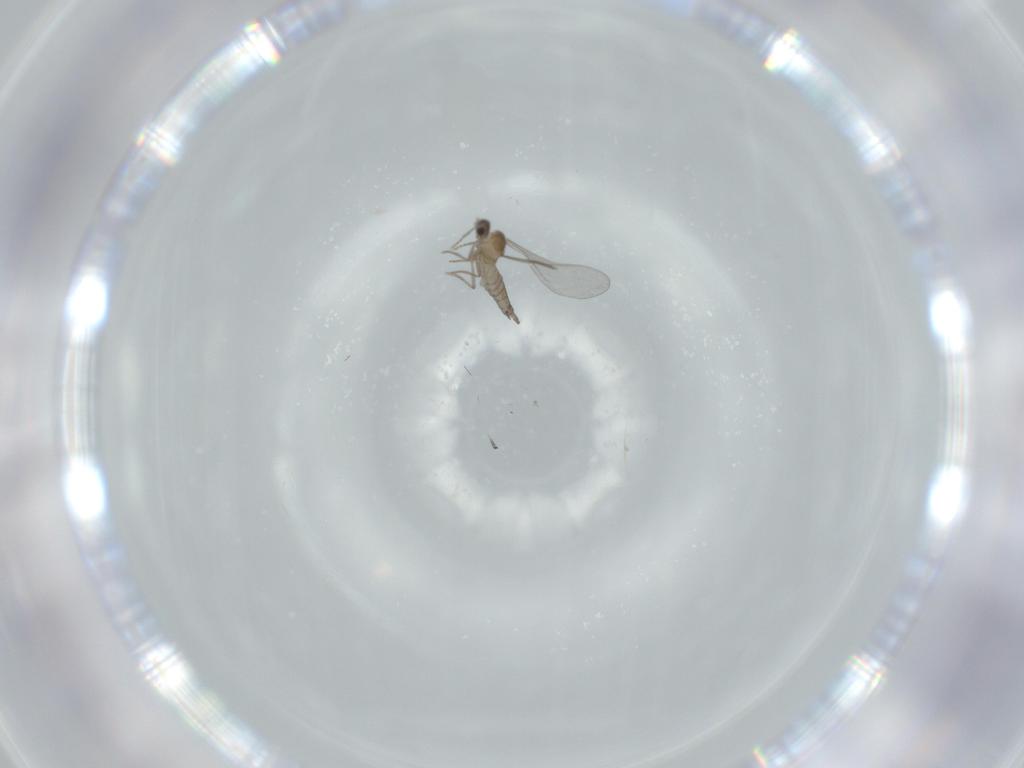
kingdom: Animalia
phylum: Arthropoda
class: Insecta
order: Diptera
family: Cecidomyiidae
